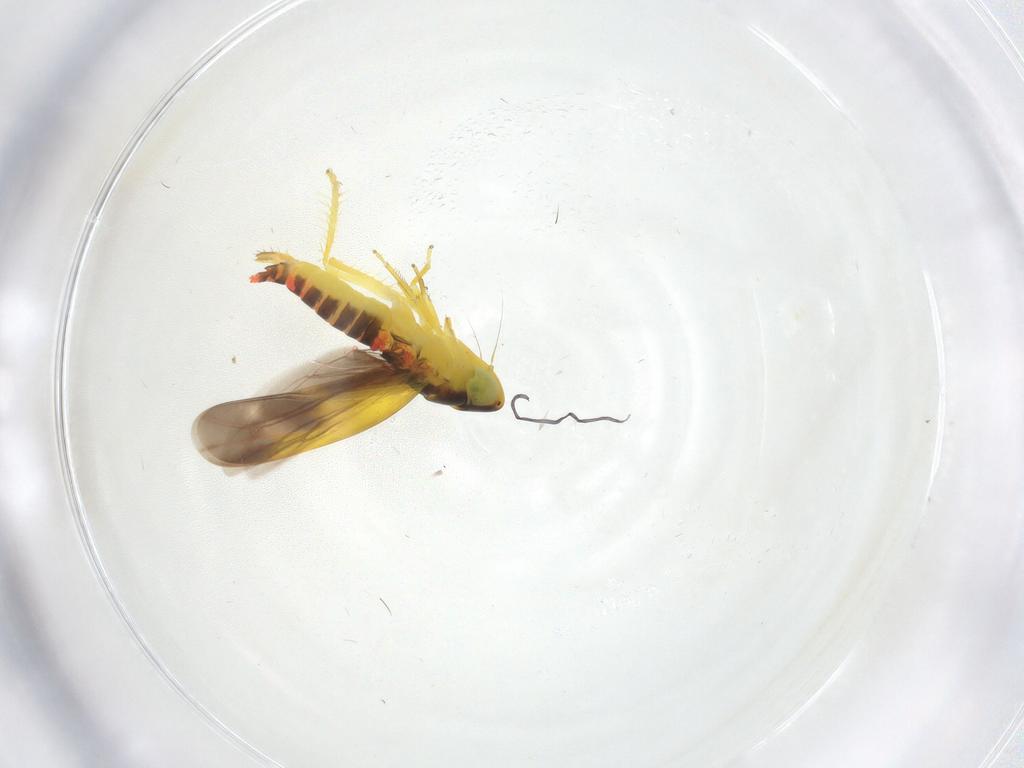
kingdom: Animalia
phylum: Arthropoda
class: Insecta
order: Hemiptera
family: Cicadellidae
